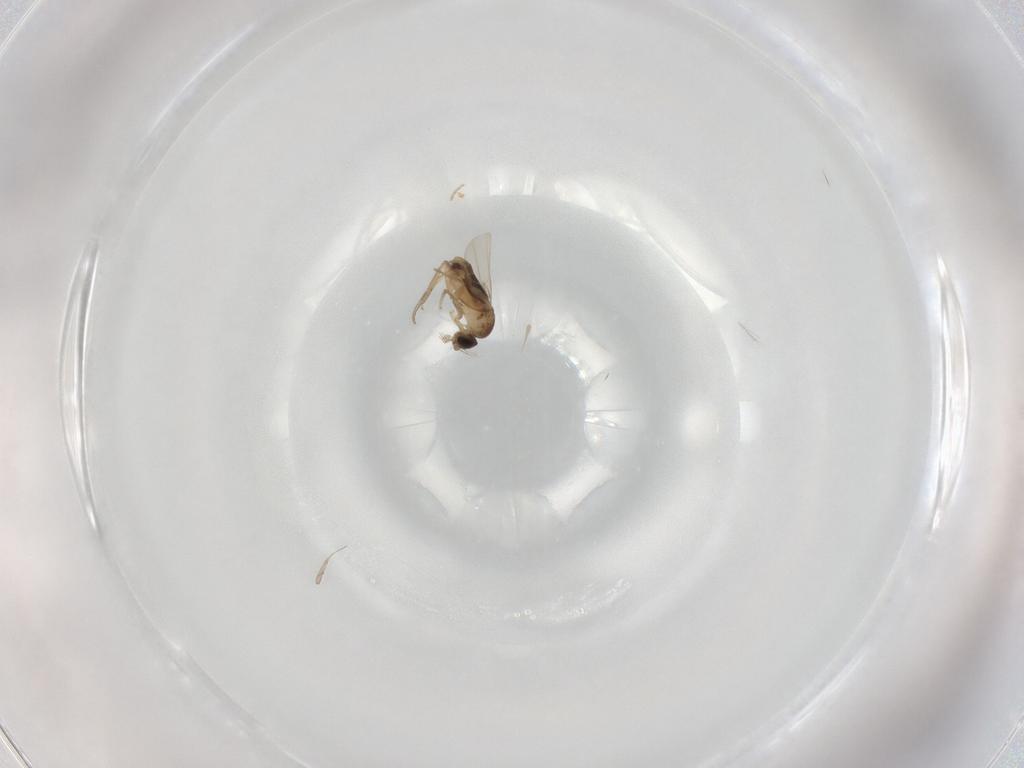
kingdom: Animalia
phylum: Arthropoda
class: Insecta
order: Diptera
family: Phoridae
